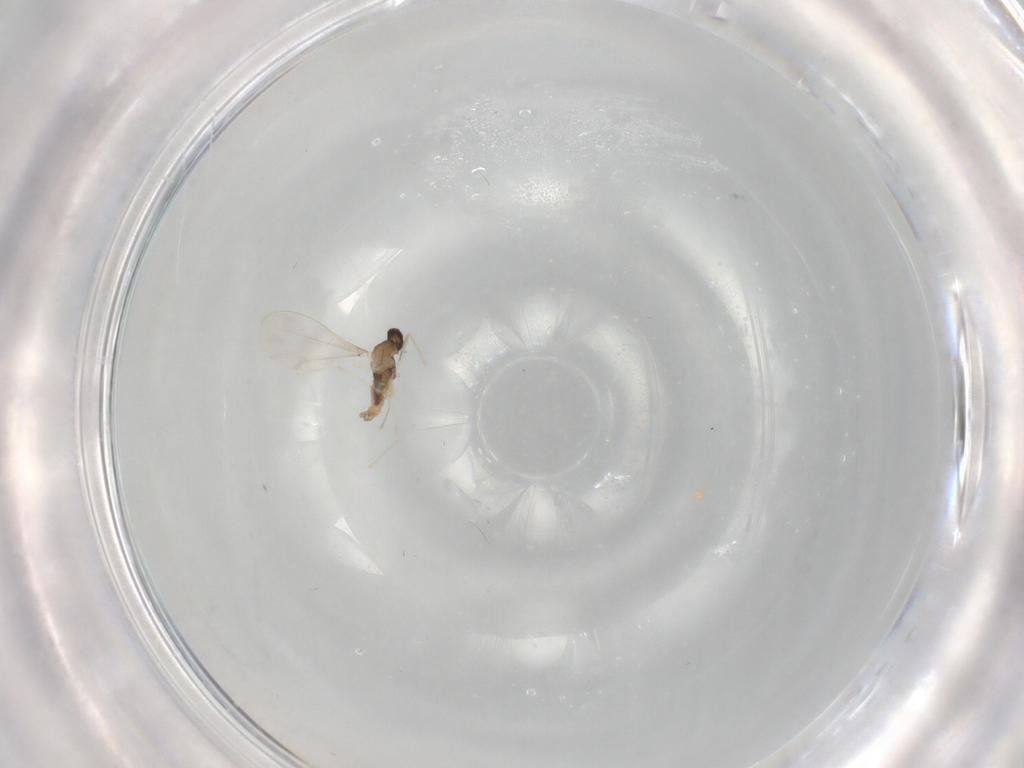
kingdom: Animalia
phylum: Arthropoda
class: Insecta
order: Diptera
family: Cecidomyiidae
